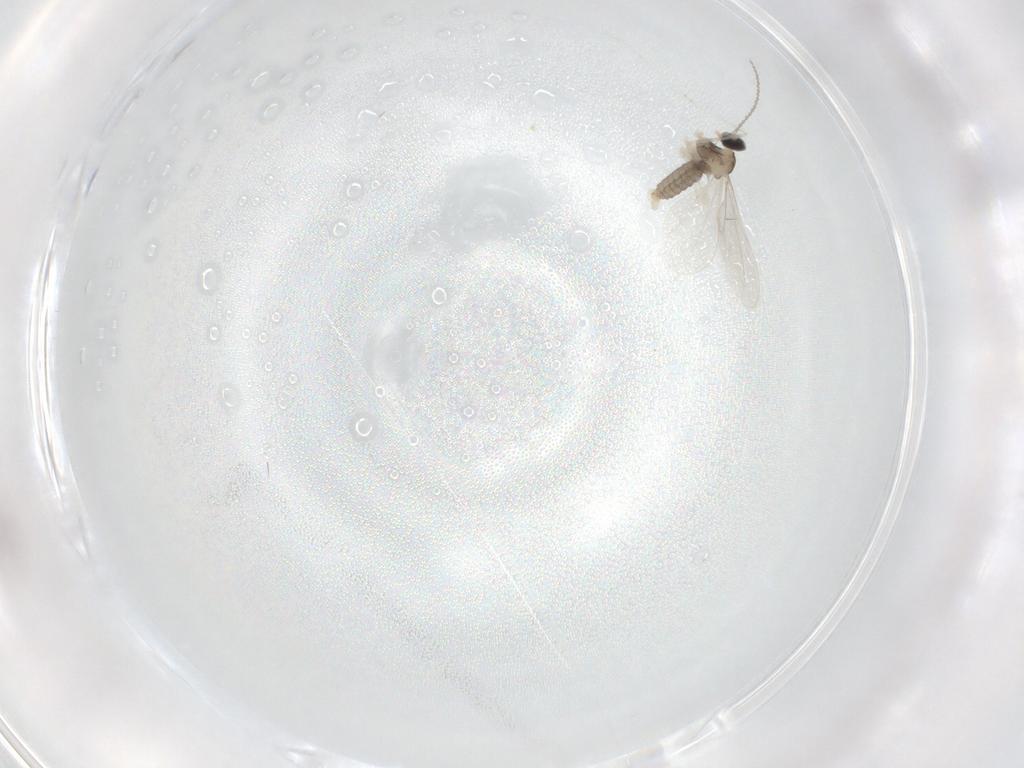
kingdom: Animalia
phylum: Arthropoda
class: Insecta
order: Diptera
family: Cecidomyiidae
